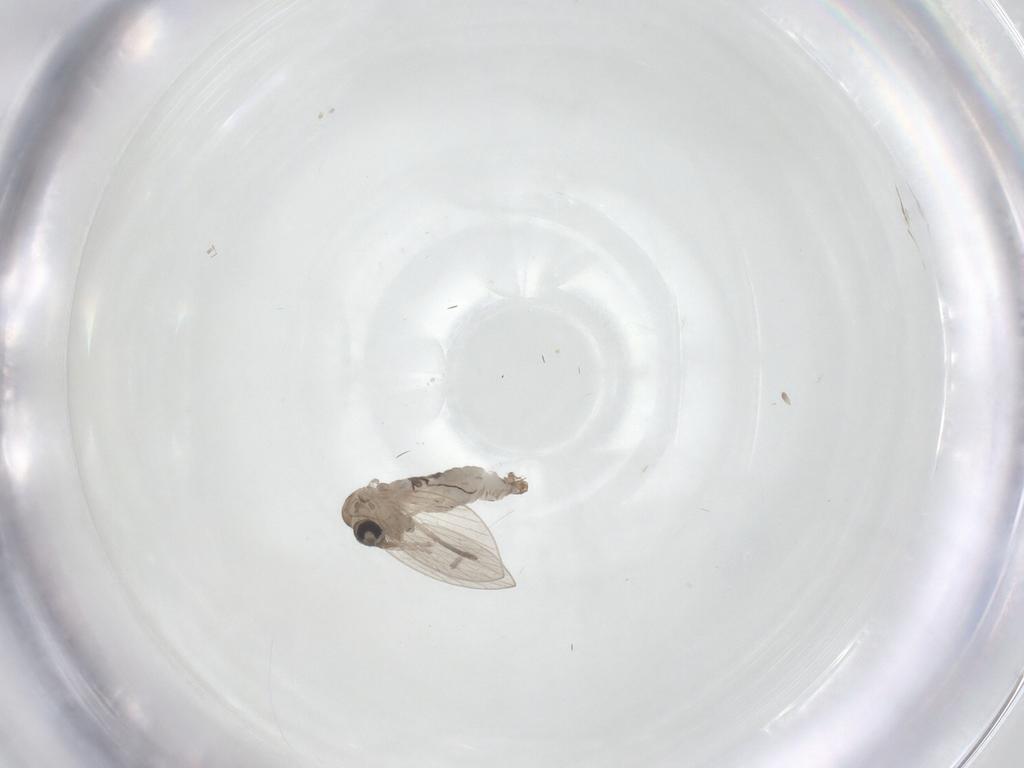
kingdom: Animalia
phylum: Arthropoda
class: Insecta
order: Diptera
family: Psychodidae
